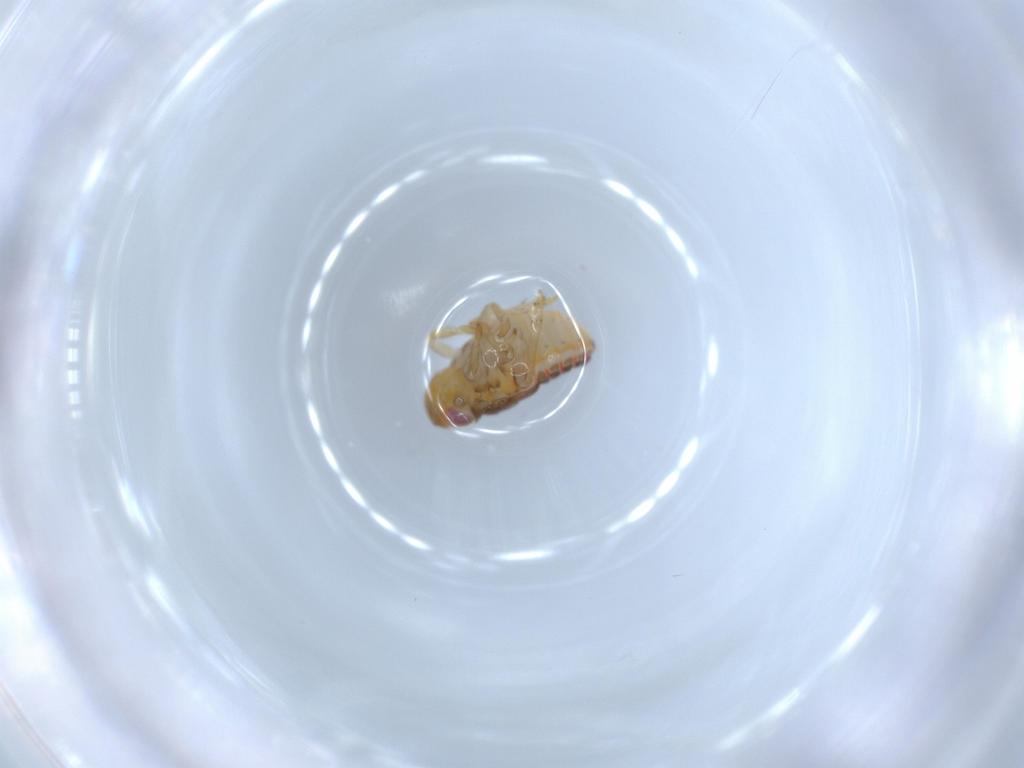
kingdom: Animalia
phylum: Arthropoda
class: Insecta
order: Hemiptera
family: Issidae
